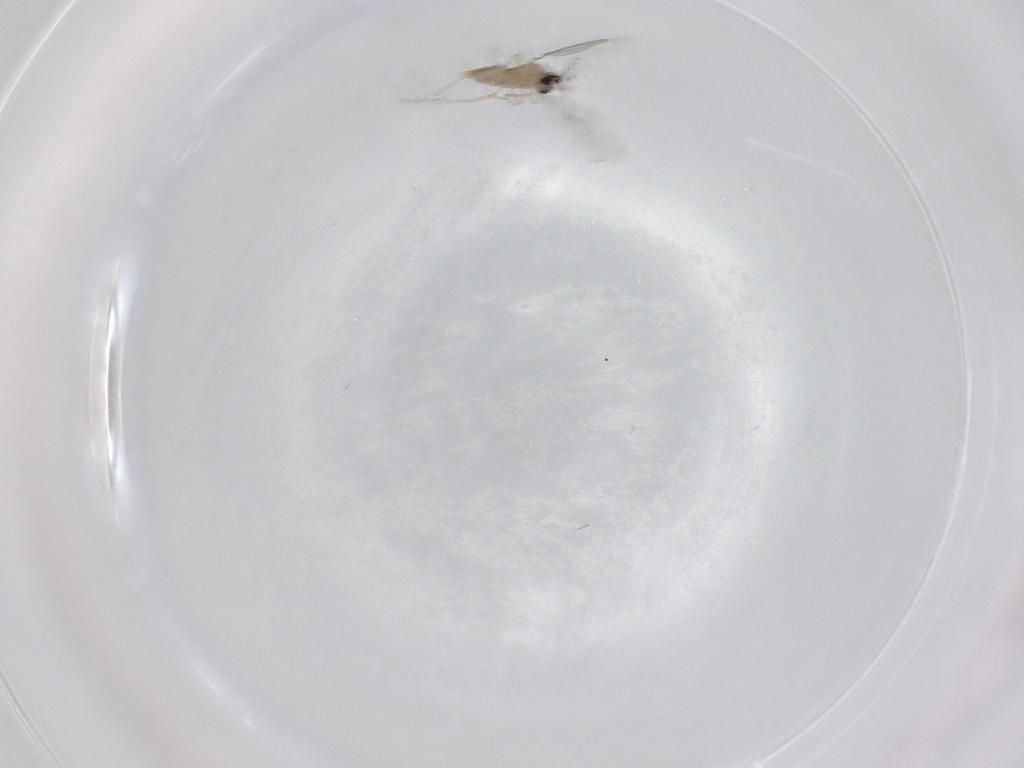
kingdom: Animalia
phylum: Arthropoda
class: Insecta
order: Diptera
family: Cecidomyiidae
